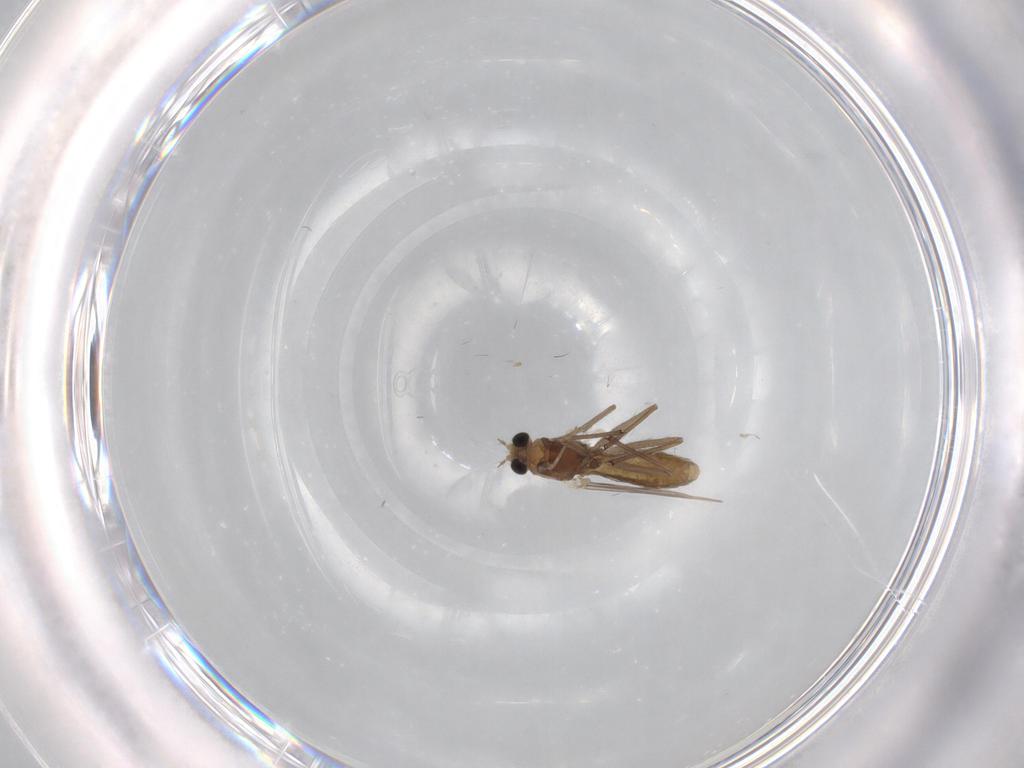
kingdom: Animalia
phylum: Arthropoda
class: Insecta
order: Diptera
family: Chironomidae
